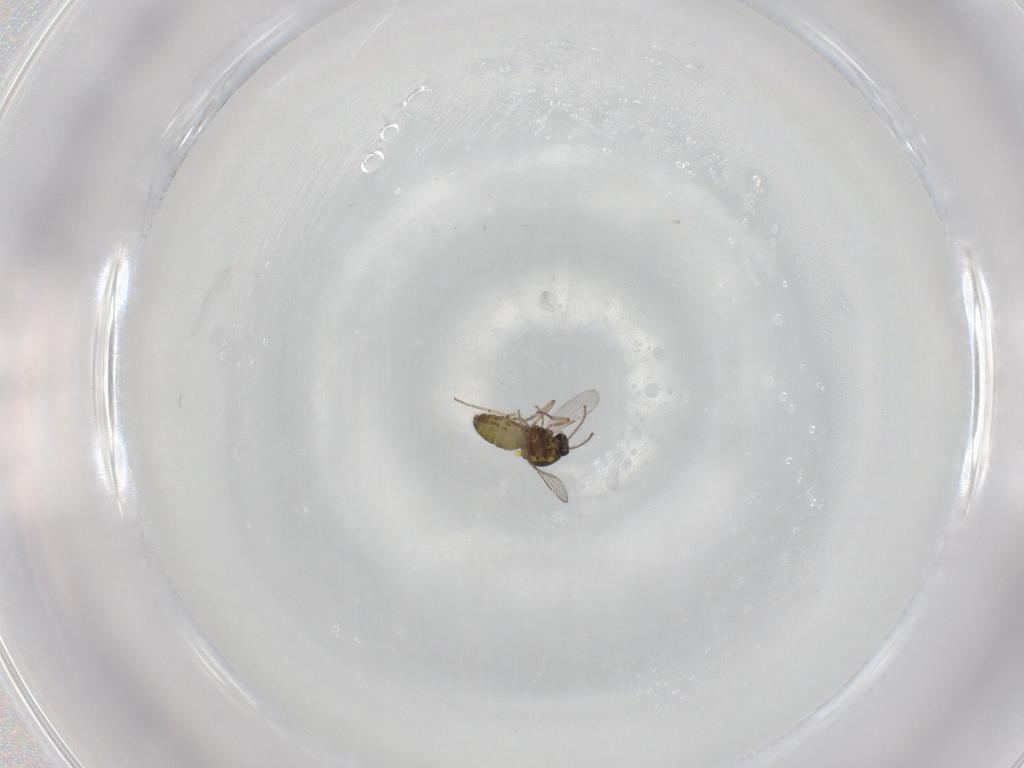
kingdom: Animalia
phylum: Arthropoda
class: Insecta
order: Diptera
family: Ceratopogonidae
